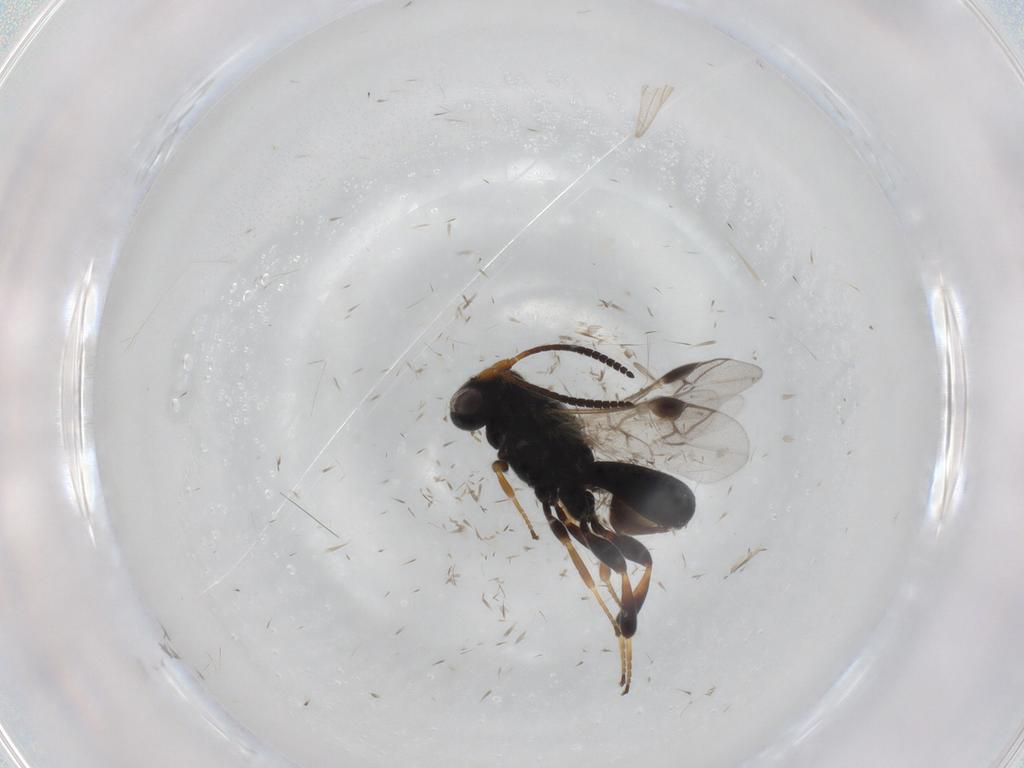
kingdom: Animalia
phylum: Arthropoda
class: Insecta
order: Hymenoptera
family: Braconidae
